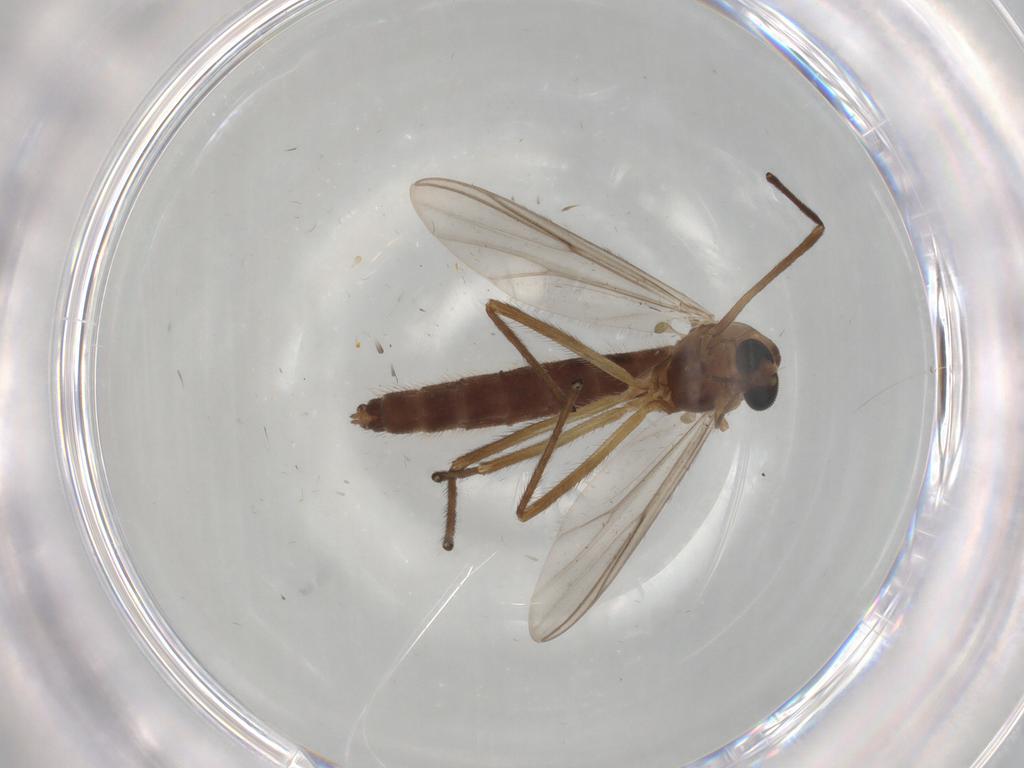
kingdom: Animalia
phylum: Arthropoda
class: Insecta
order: Diptera
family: Chironomidae
